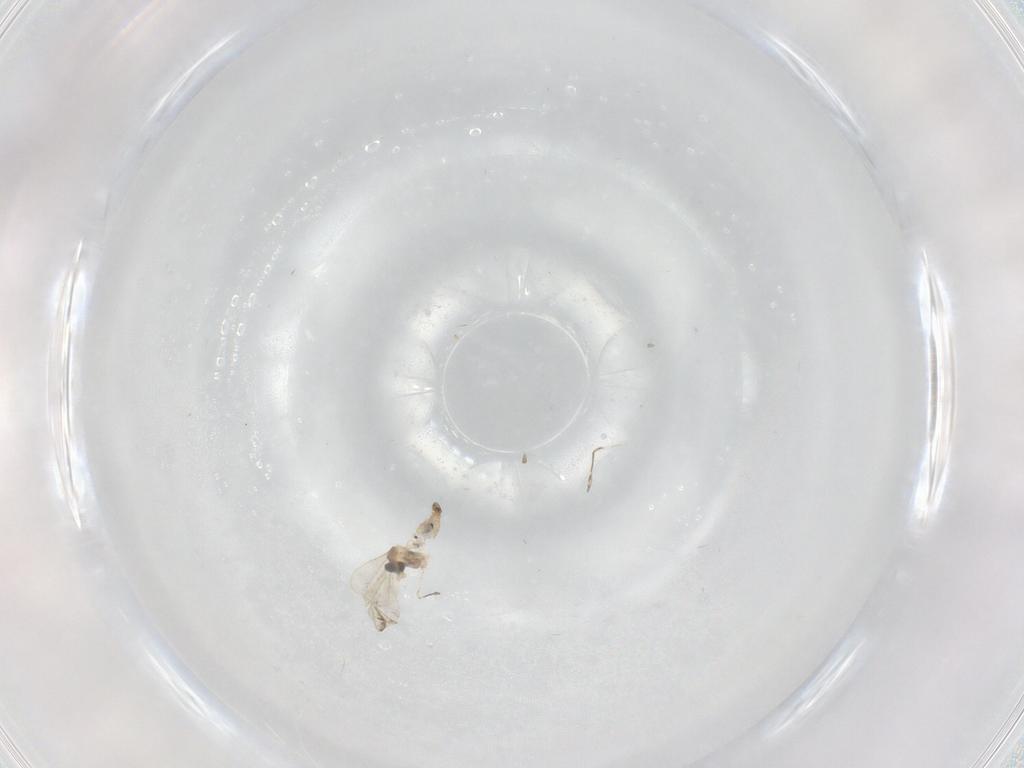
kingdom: Animalia
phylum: Arthropoda
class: Insecta
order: Diptera
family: Cecidomyiidae
